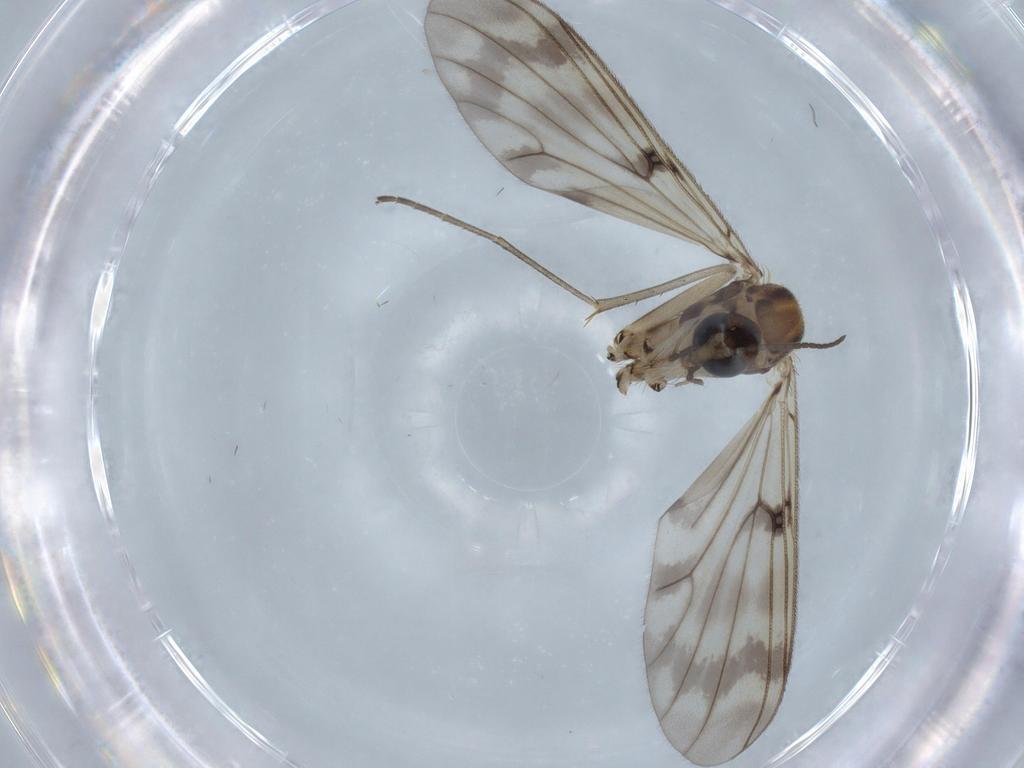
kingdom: Animalia
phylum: Arthropoda
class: Insecta
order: Diptera
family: Mycetophilidae
